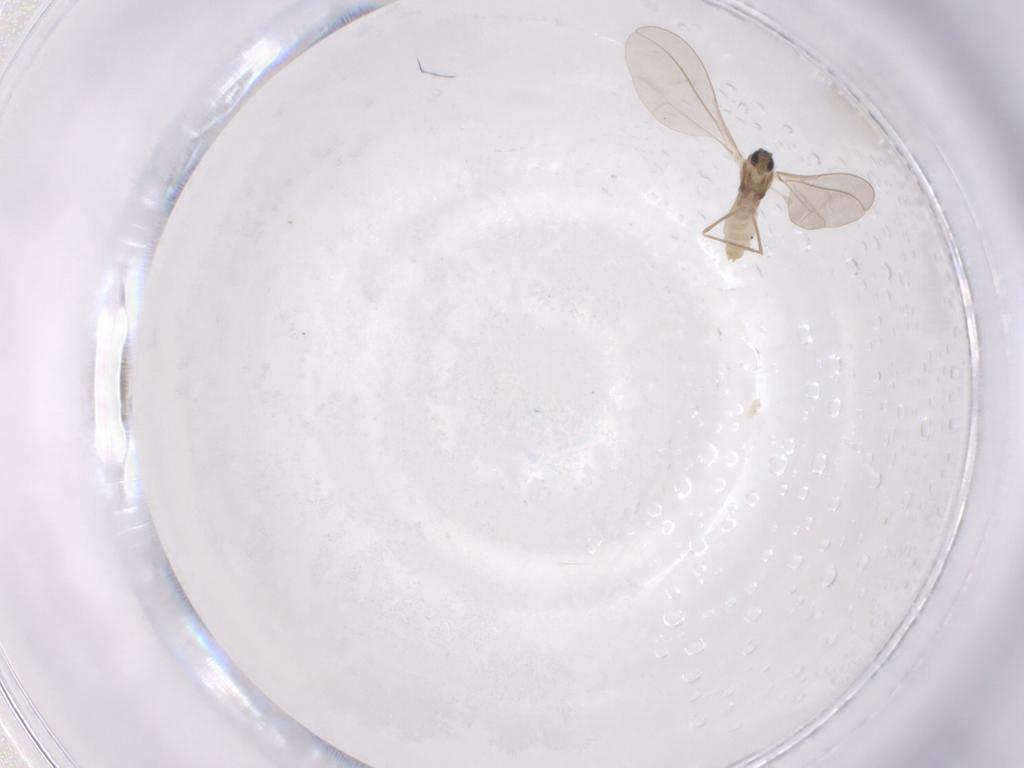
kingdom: Animalia
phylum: Arthropoda
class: Insecta
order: Diptera
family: Cecidomyiidae
